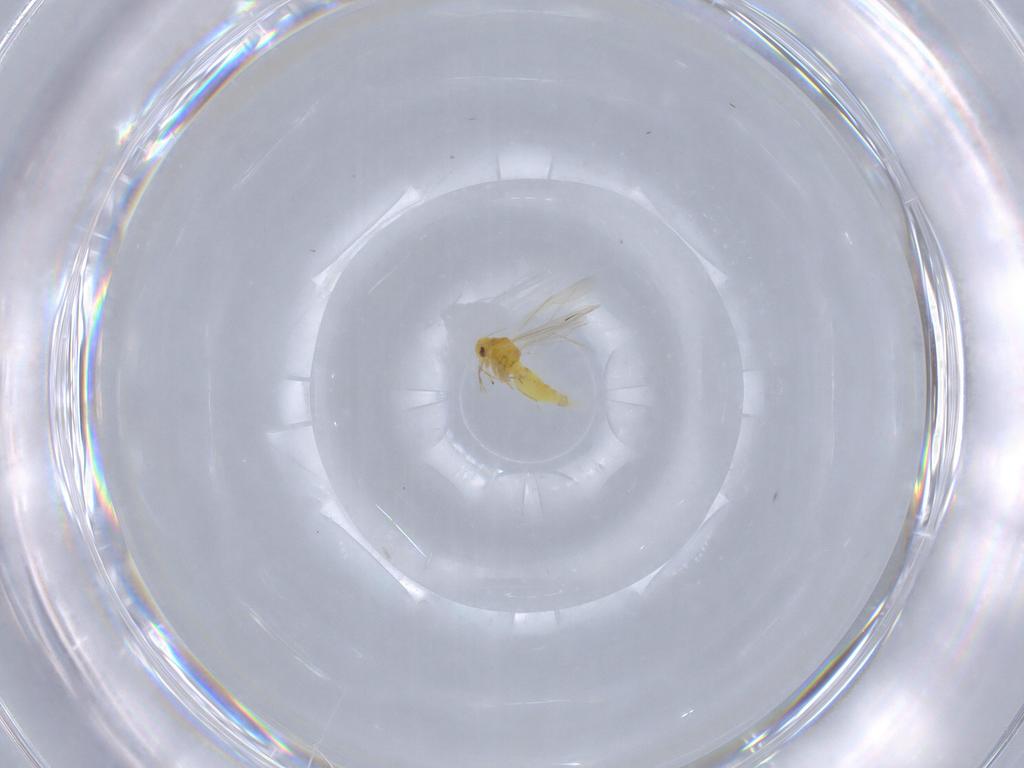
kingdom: Animalia
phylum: Arthropoda
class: Insecta
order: Hemiptera
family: Aleyrodidae
